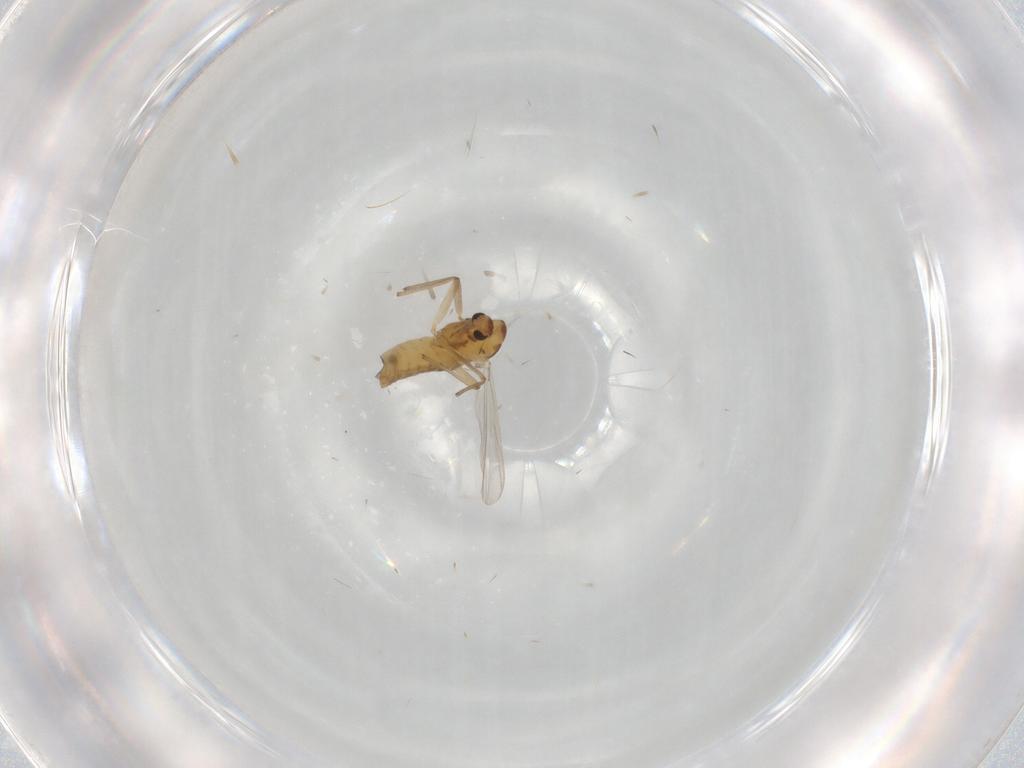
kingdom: Animalia
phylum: Arthropoda
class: Insecta
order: Diptera
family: Chironomidae
